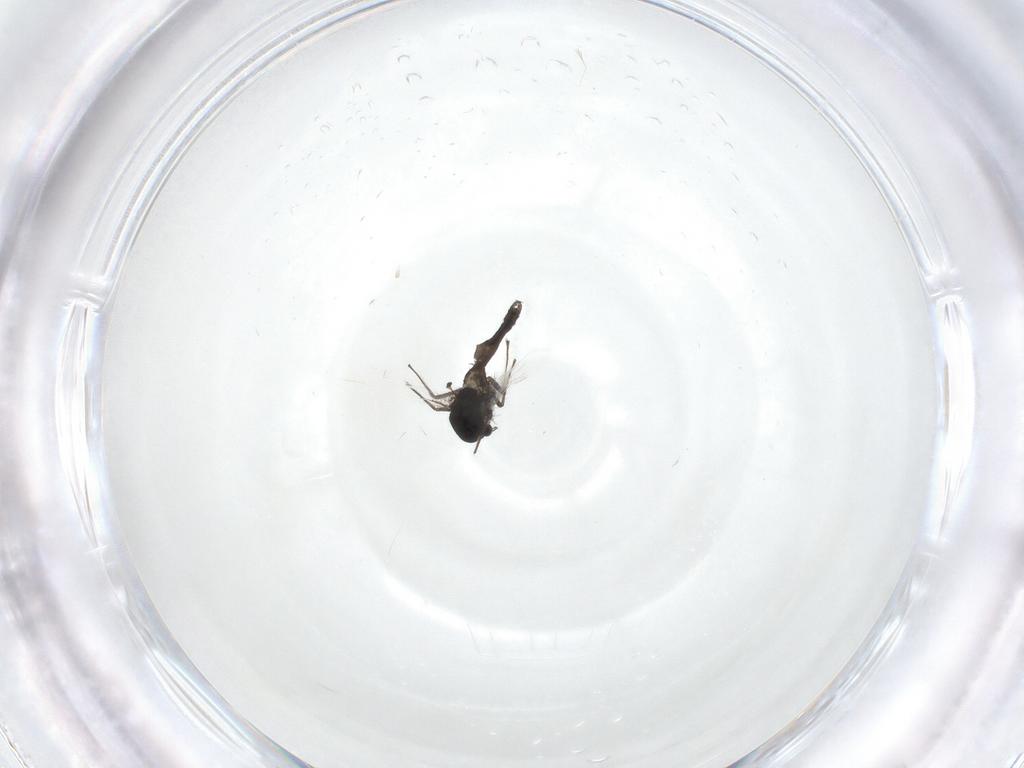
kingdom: Animalia
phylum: Arthropoda
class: Insecta
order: Diptera
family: Chironomidae
